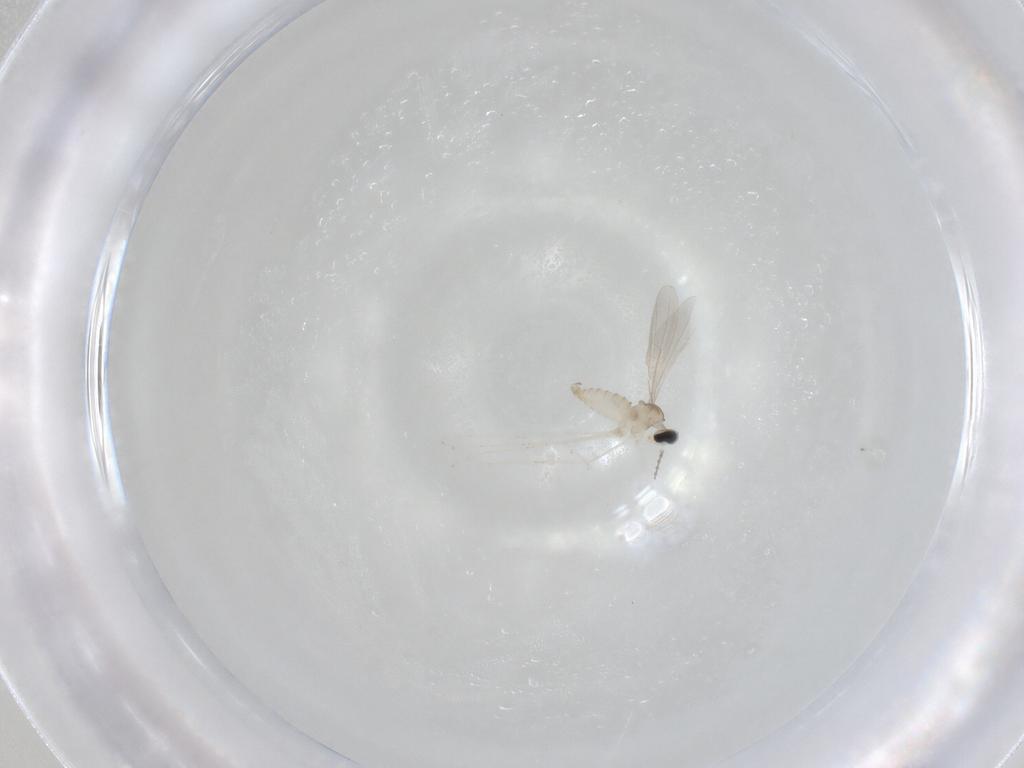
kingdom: Animalia
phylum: Arthropoda
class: Insecta
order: Diptera
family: Cecidomyiidae
